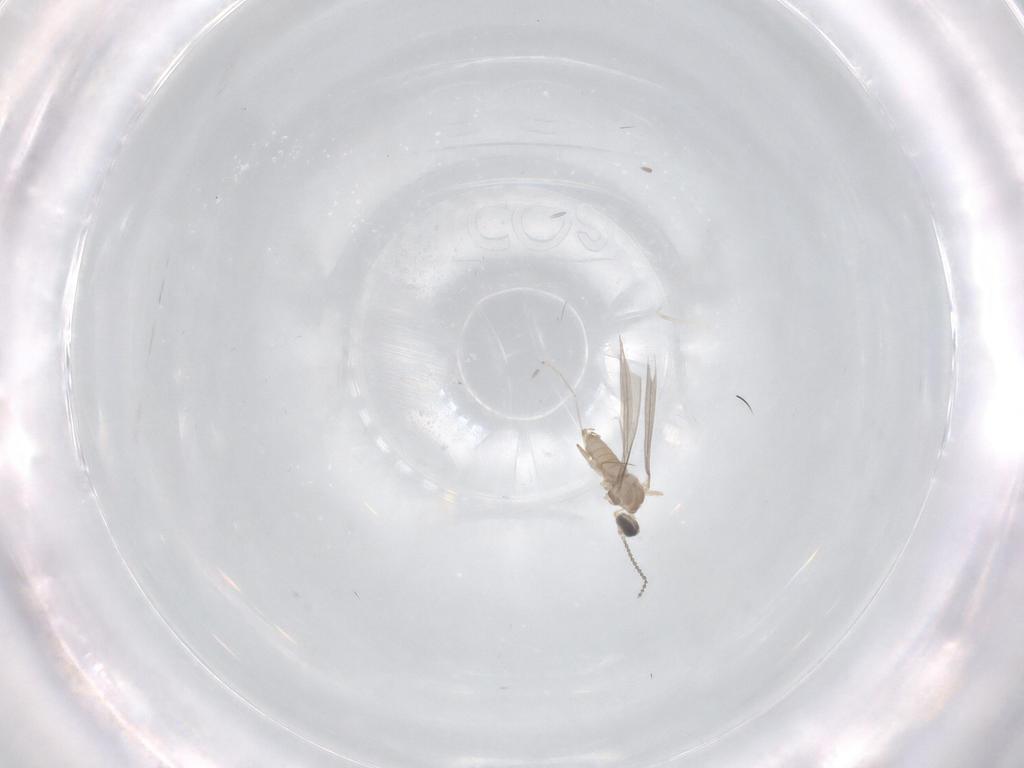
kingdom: Animalia
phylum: Arthropoda
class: Insecta
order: Diptera
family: Cecidomyiidae
